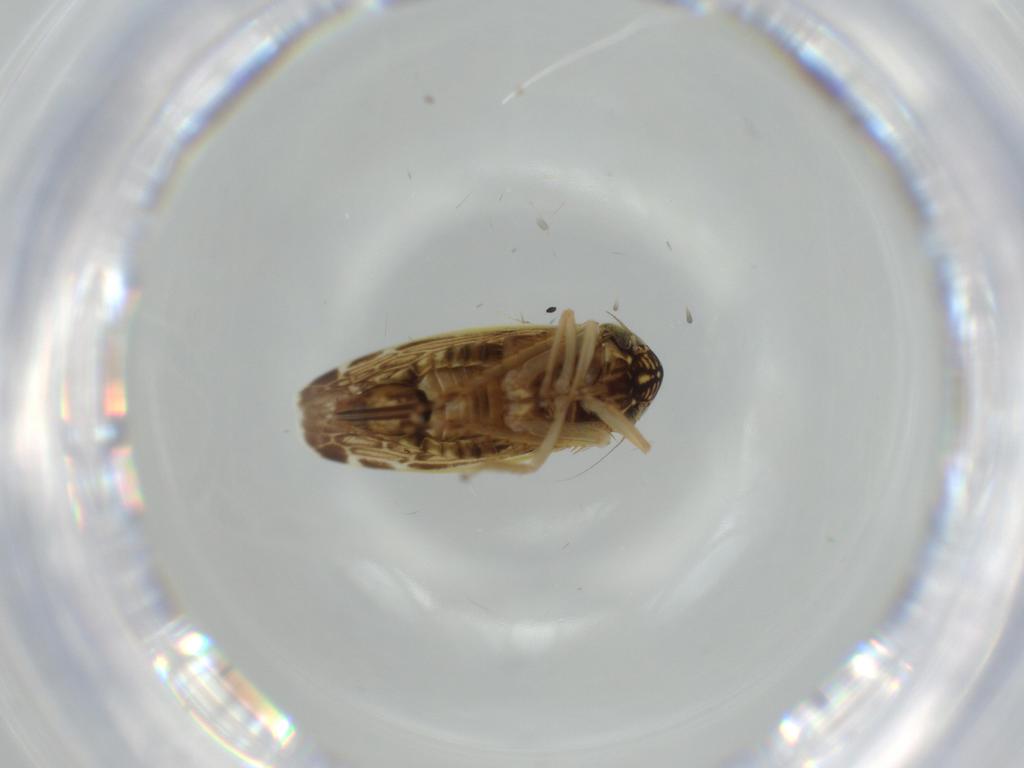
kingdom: Animalia
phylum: Arthropoda
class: Insecta
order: Hemiptera
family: Cicadellidae
